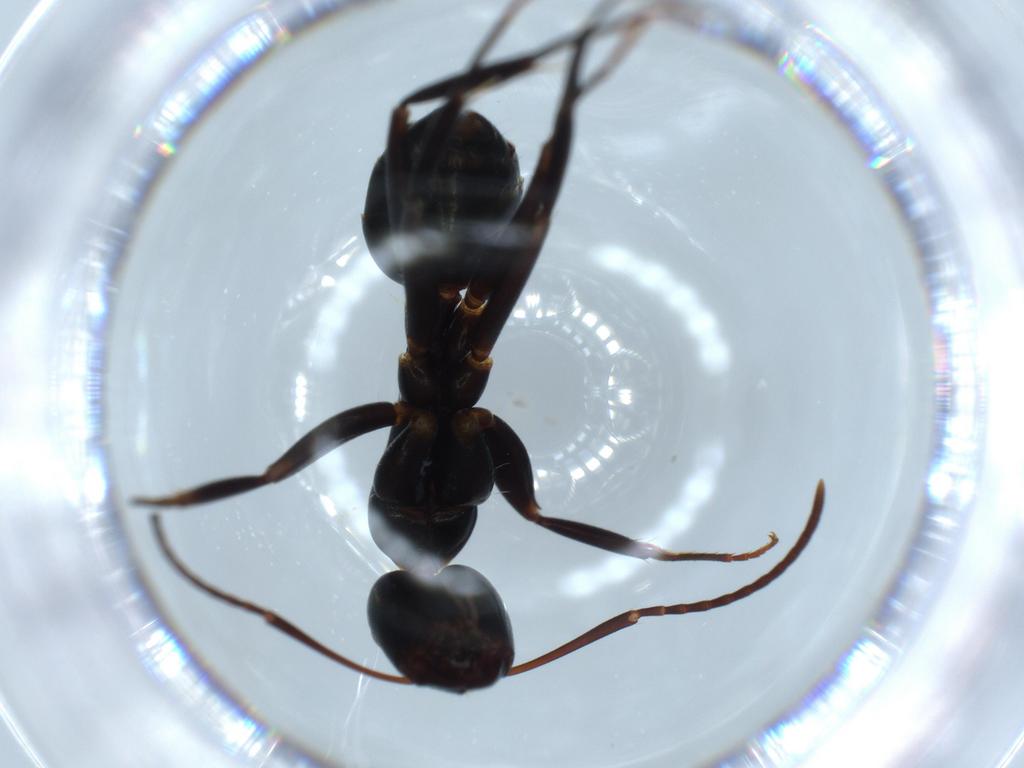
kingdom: Animalia
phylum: Arthropoda
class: Insecta
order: Hymenoptera
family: Formicidae
